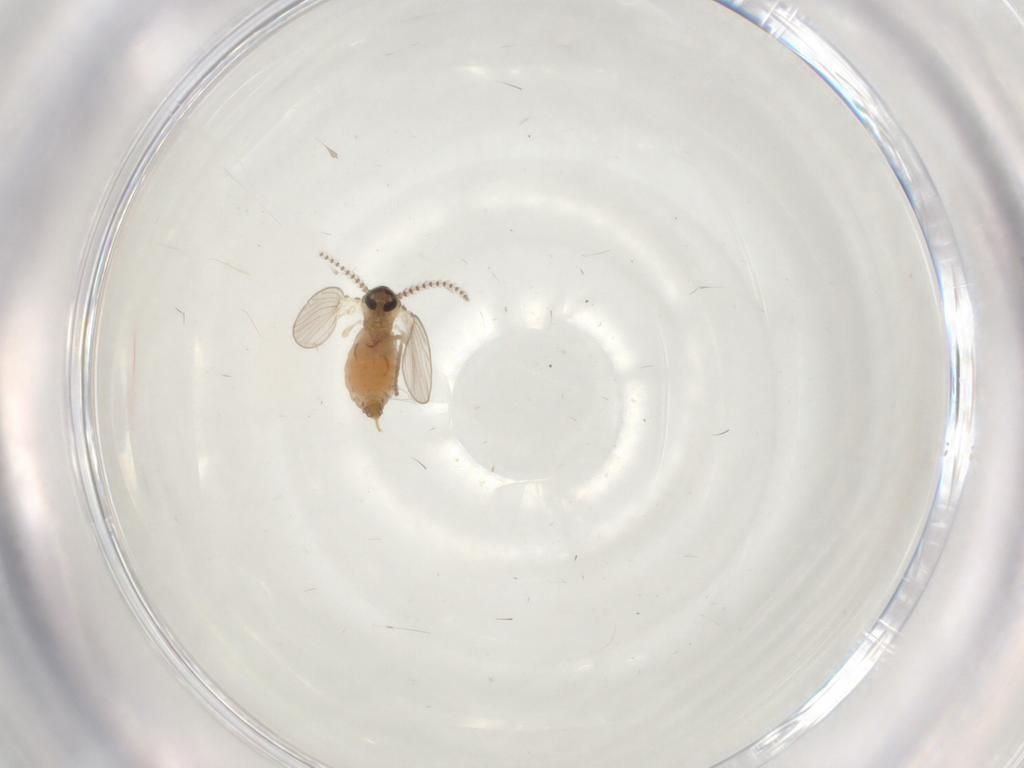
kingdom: Animalia
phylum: Arthropoda
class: Insecta
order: Diptera
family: Psychodidae
